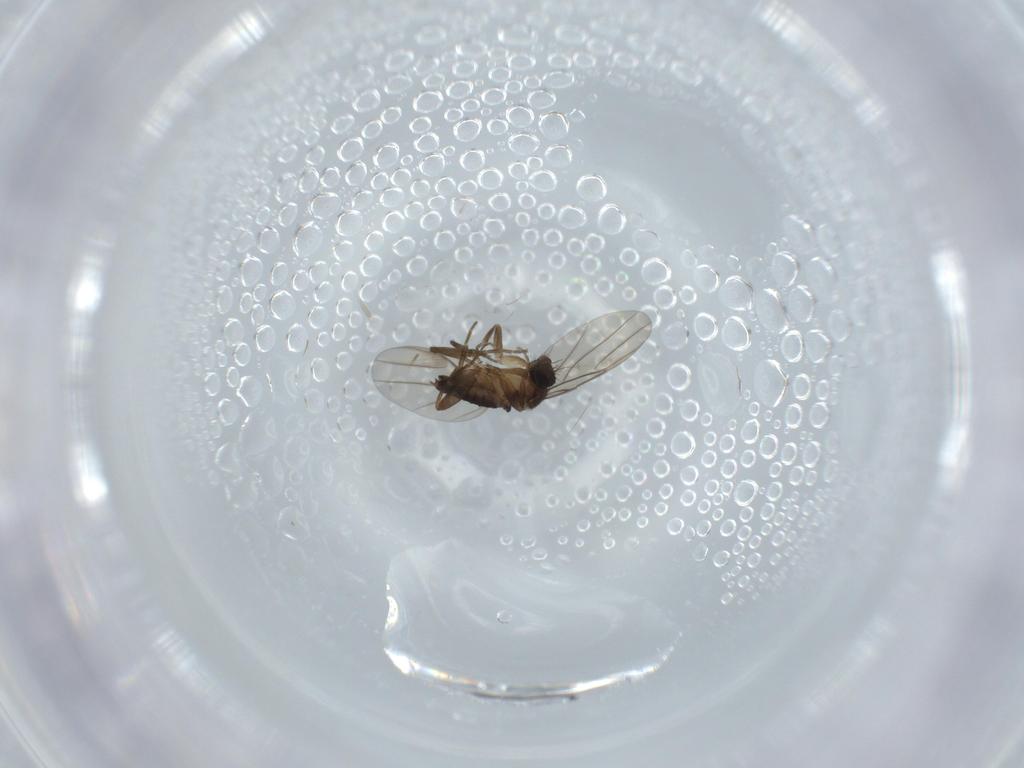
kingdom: Animalia
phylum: Arthropoda
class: Insecta
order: Diptera
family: Phoridae
